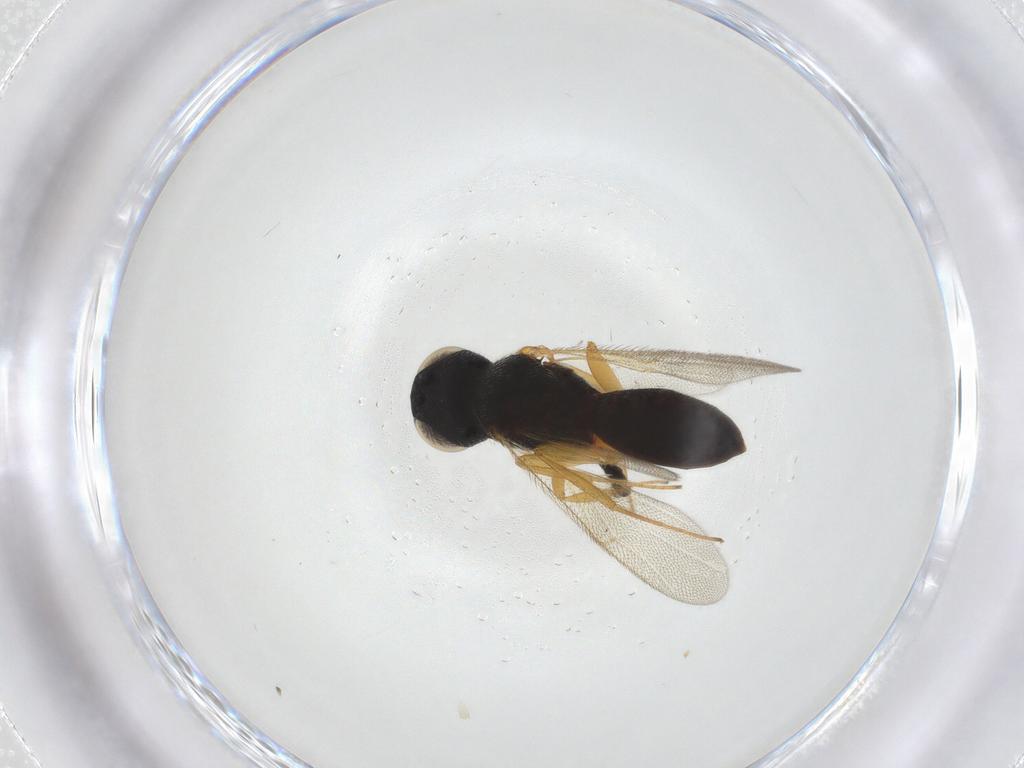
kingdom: Animalia
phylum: Arthropoda
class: Insecta
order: Hymenoptera
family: Scelionidae
